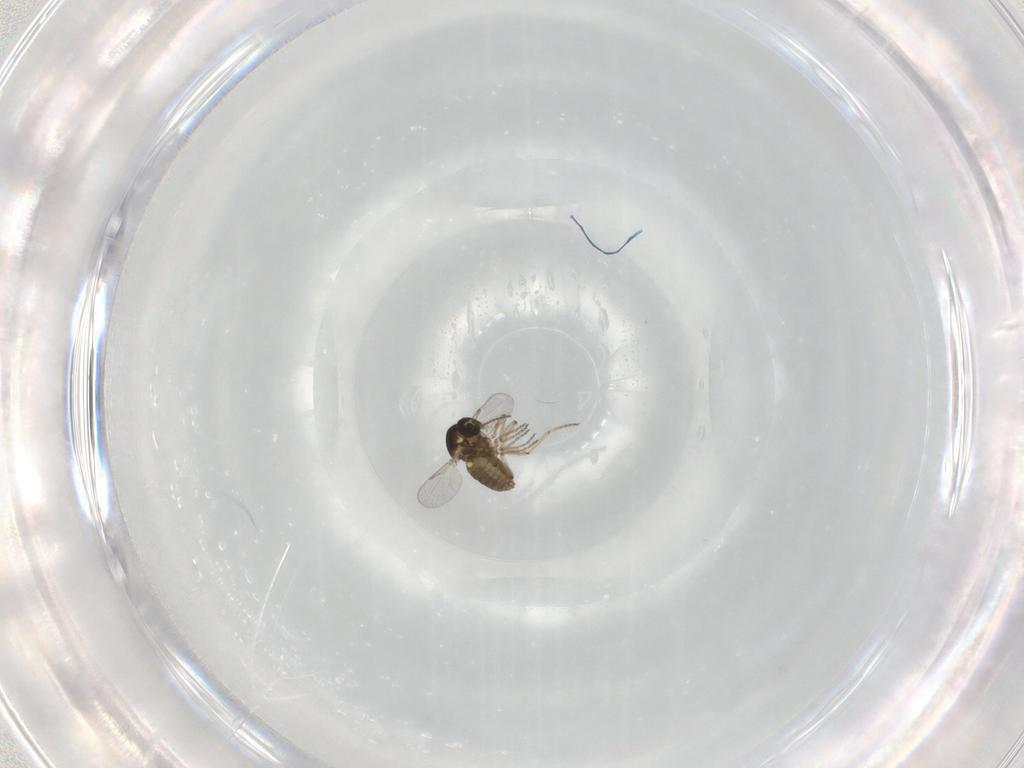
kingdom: Animalia
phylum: Arthropoda
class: Insecta
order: Diptera
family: Ceratopogonidae
